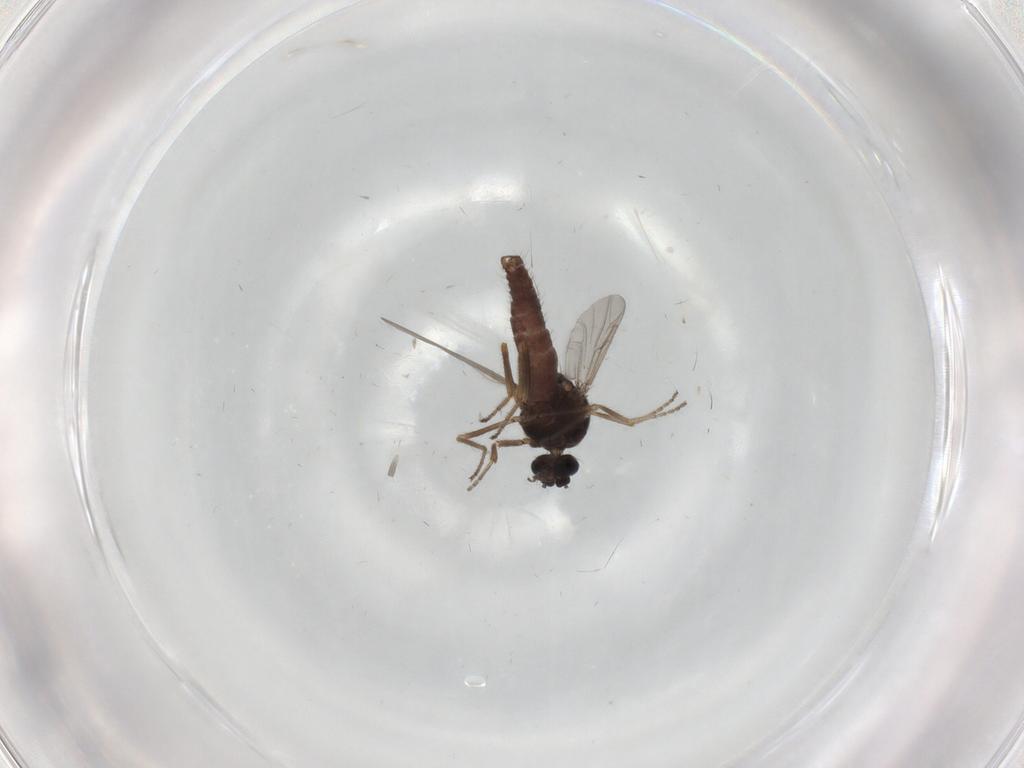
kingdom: Animalia
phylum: Arthropoda
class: Insecta
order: Diptera
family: Ceratopogonidae
